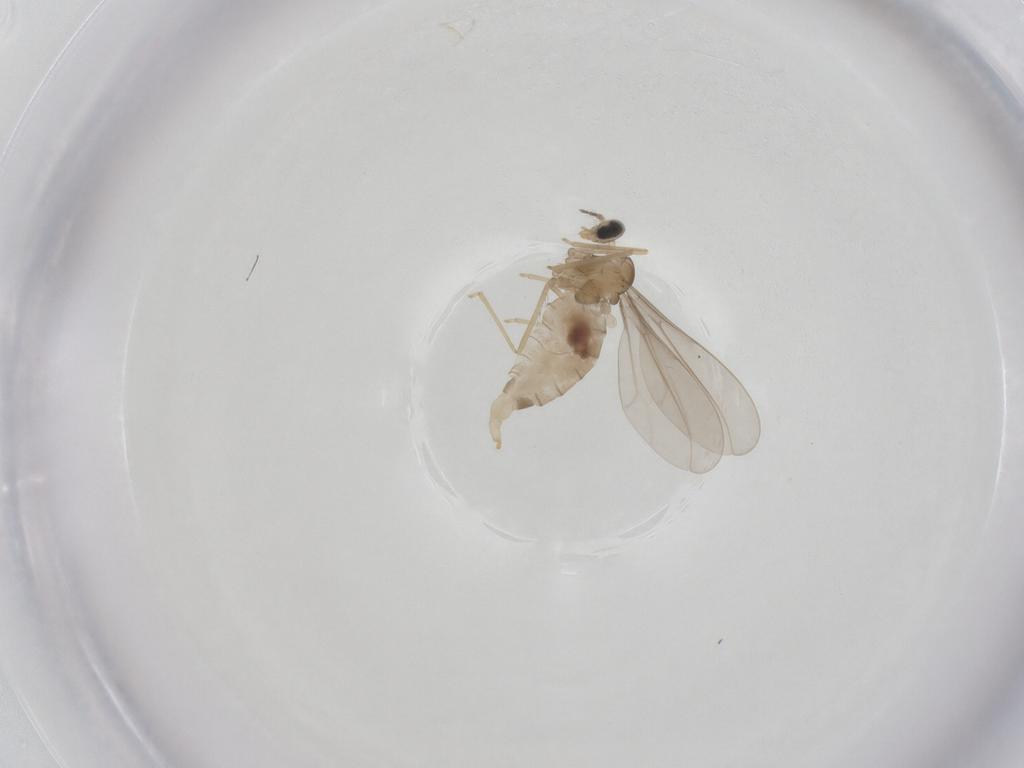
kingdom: Animalia
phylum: Arthropoda
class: Insecta
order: Diptera
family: Cecidomyiidae
